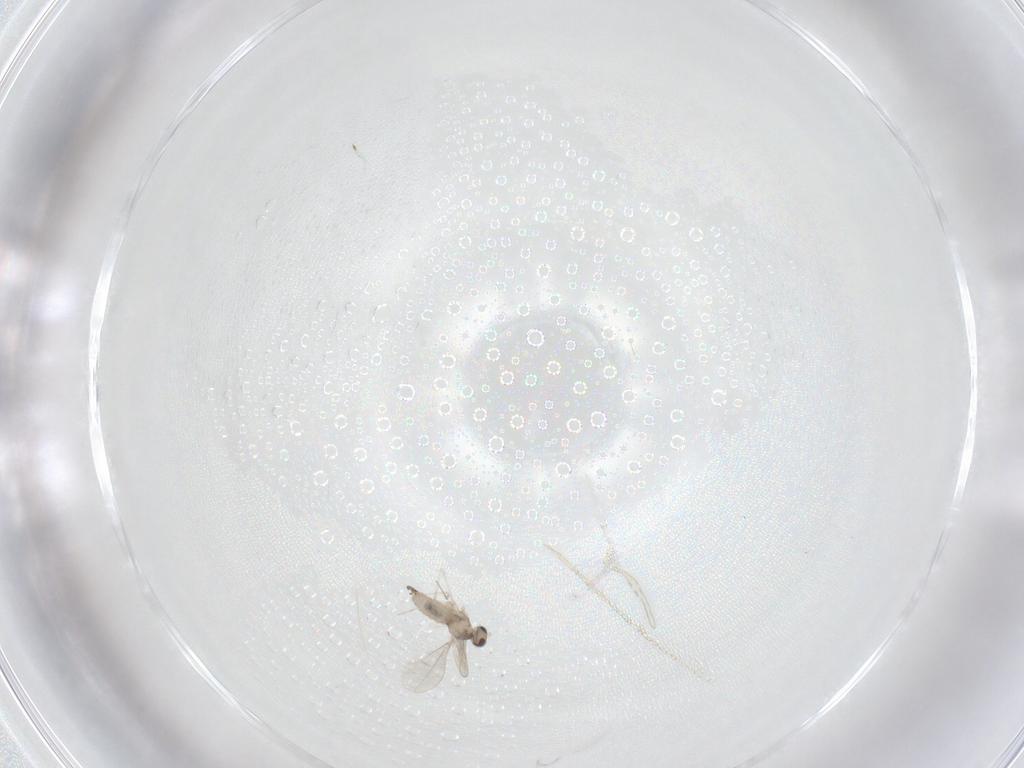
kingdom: Animalia
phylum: Arthropoda
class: Insecta
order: Diptera
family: Cecidomyiidae
